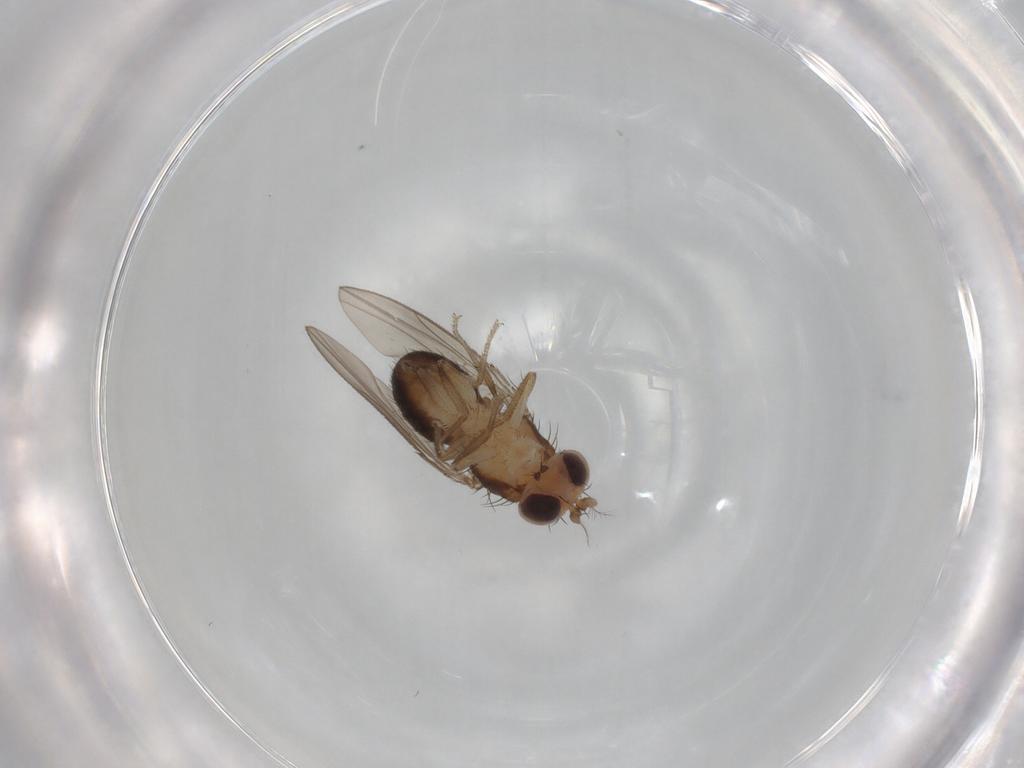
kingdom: Animalia
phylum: Arthropoda
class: Insecta
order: Diptera
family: Drosophilidae
